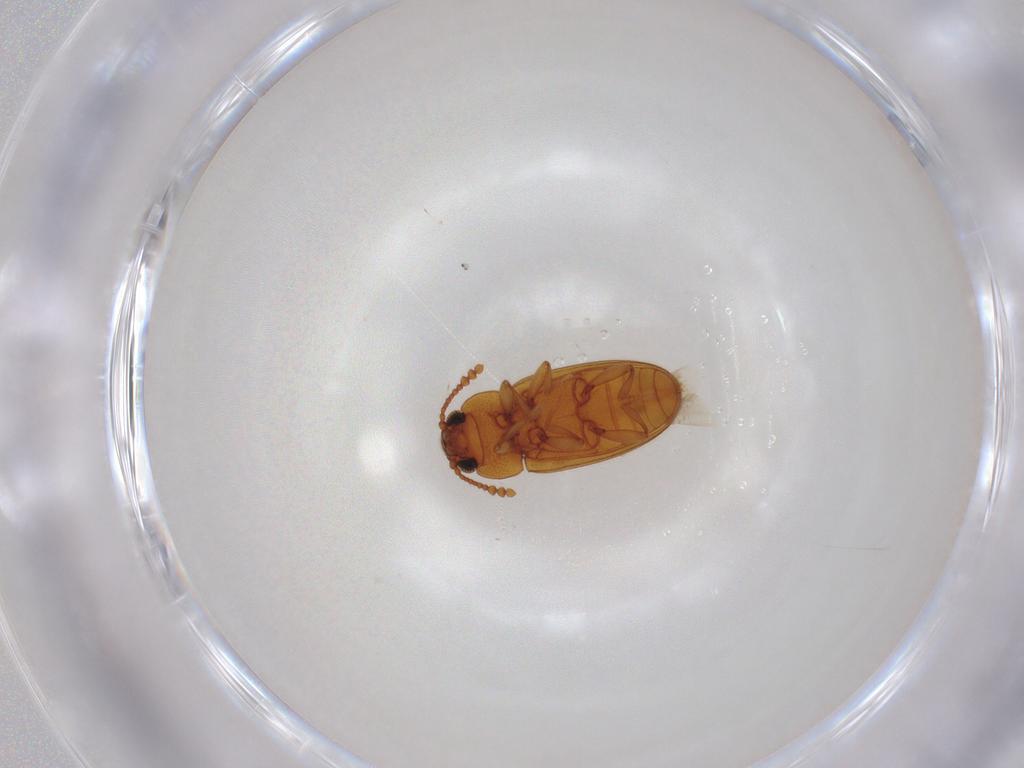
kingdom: Animalia
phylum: Arthropoda
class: Insecta
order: Coleoptera
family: Erotylidae
